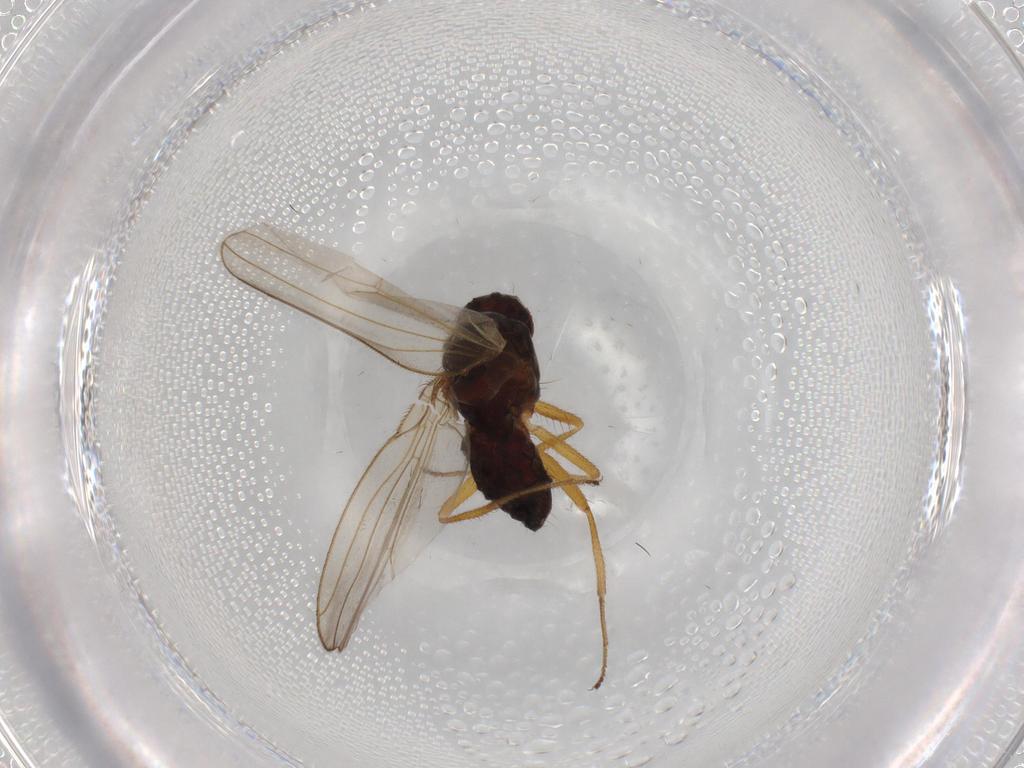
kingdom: Animalia
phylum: Arthropoda
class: Insecta
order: Diptera
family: Drosophilidae
